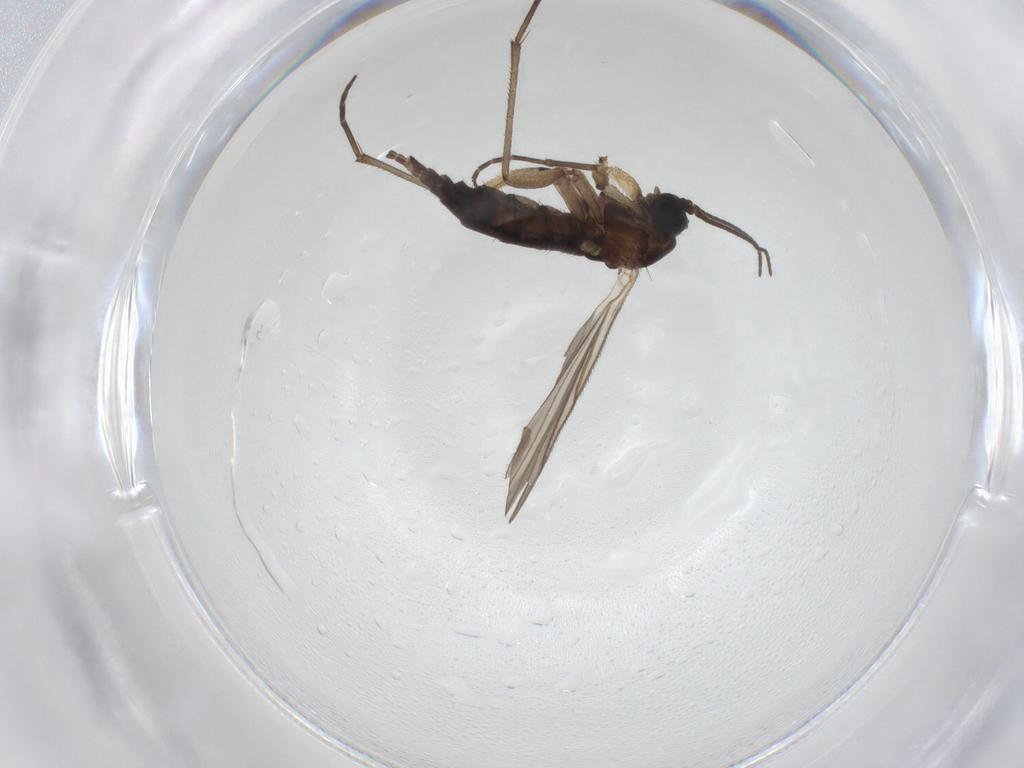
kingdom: Animalia
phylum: Arthropoda
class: Insecta
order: Diptera
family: Sciaridae
